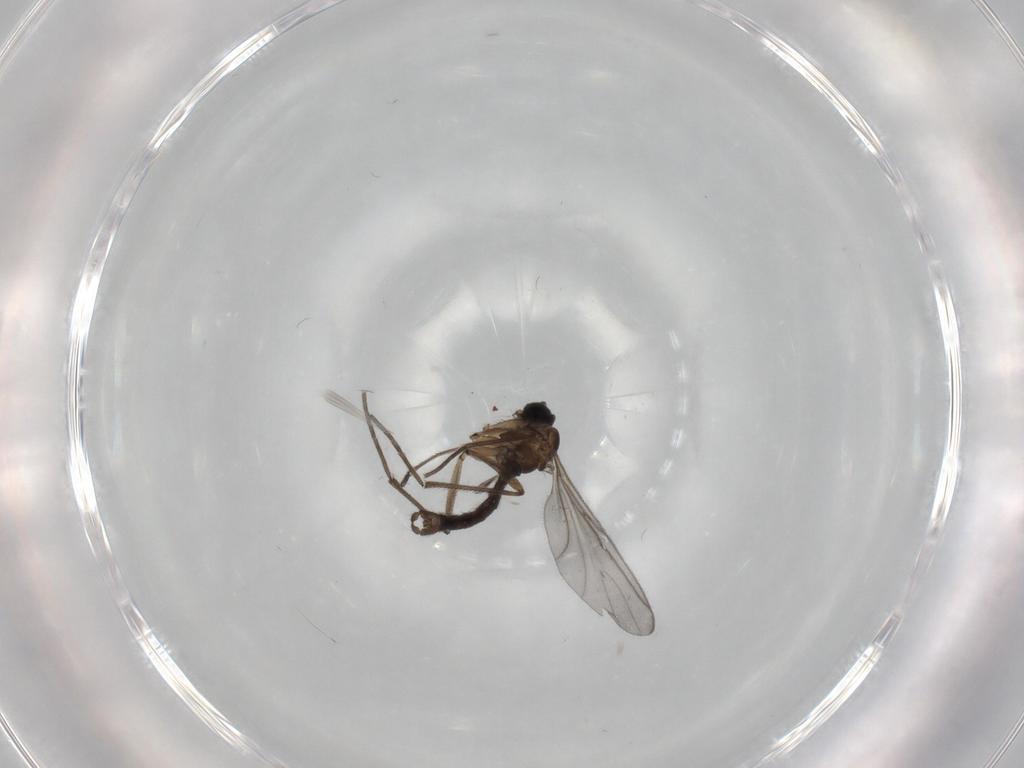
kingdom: Animalia
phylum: Arthropoda
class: Insecta
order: Diptera
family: Sciaridae
